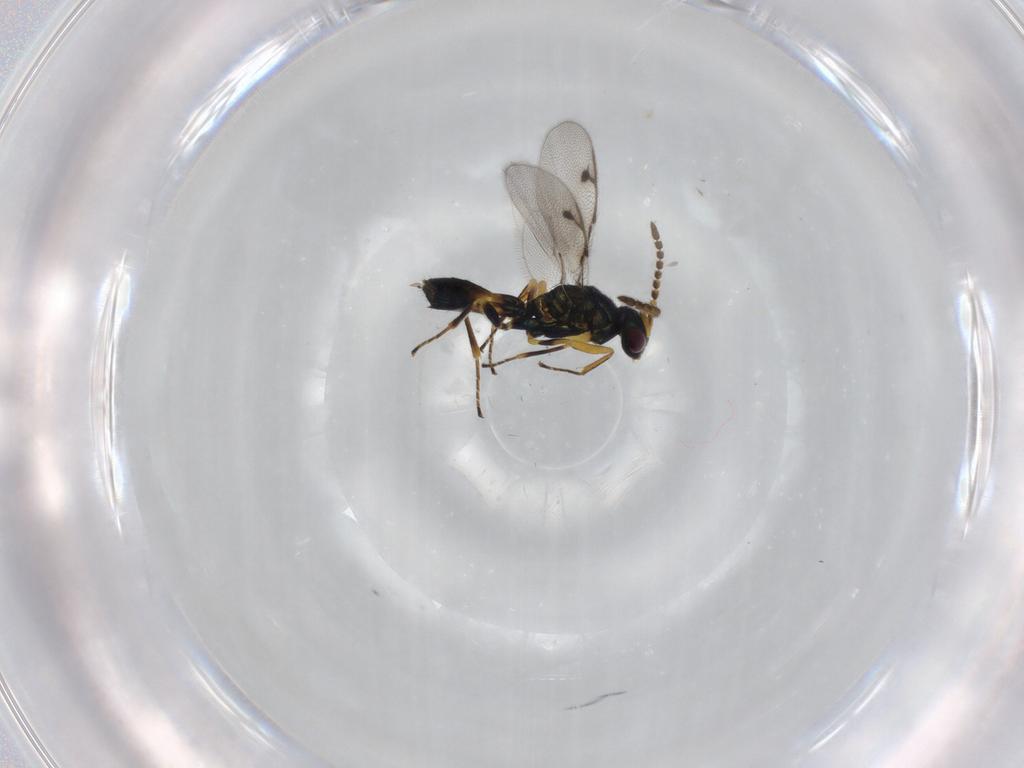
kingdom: Animalia
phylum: Arthropoda
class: Insecta
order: Hymenoptera
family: Pirenidae
